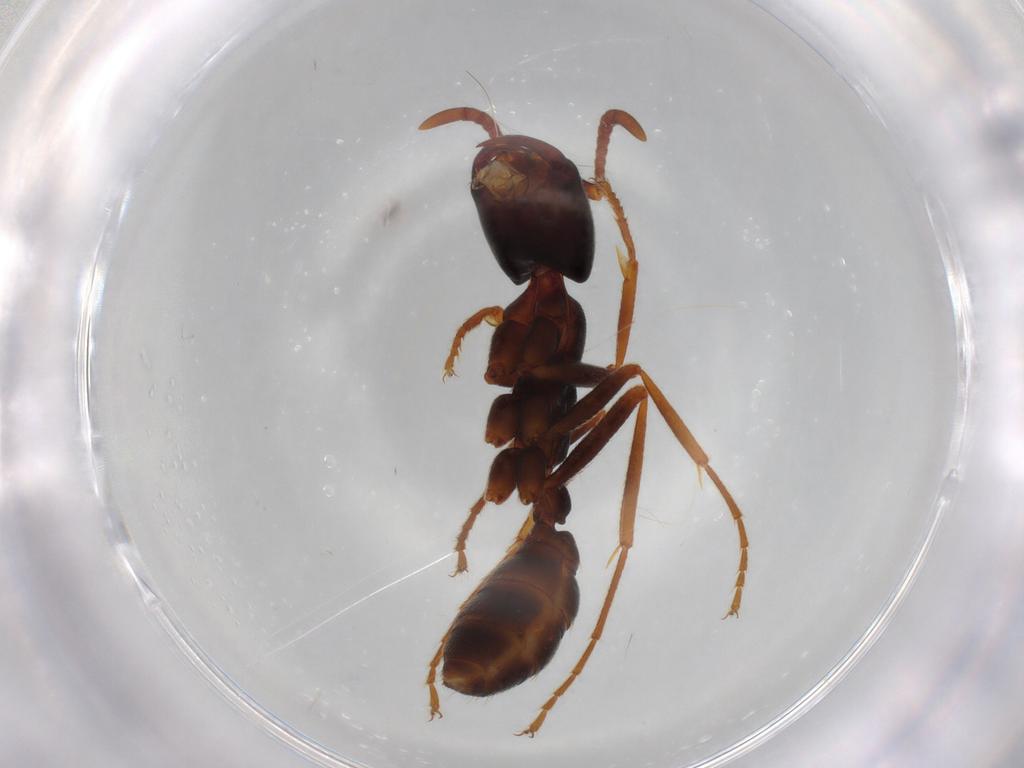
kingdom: Animalia
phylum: Arthropoda
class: Insecta
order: Hymenoptera
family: Formicidae
